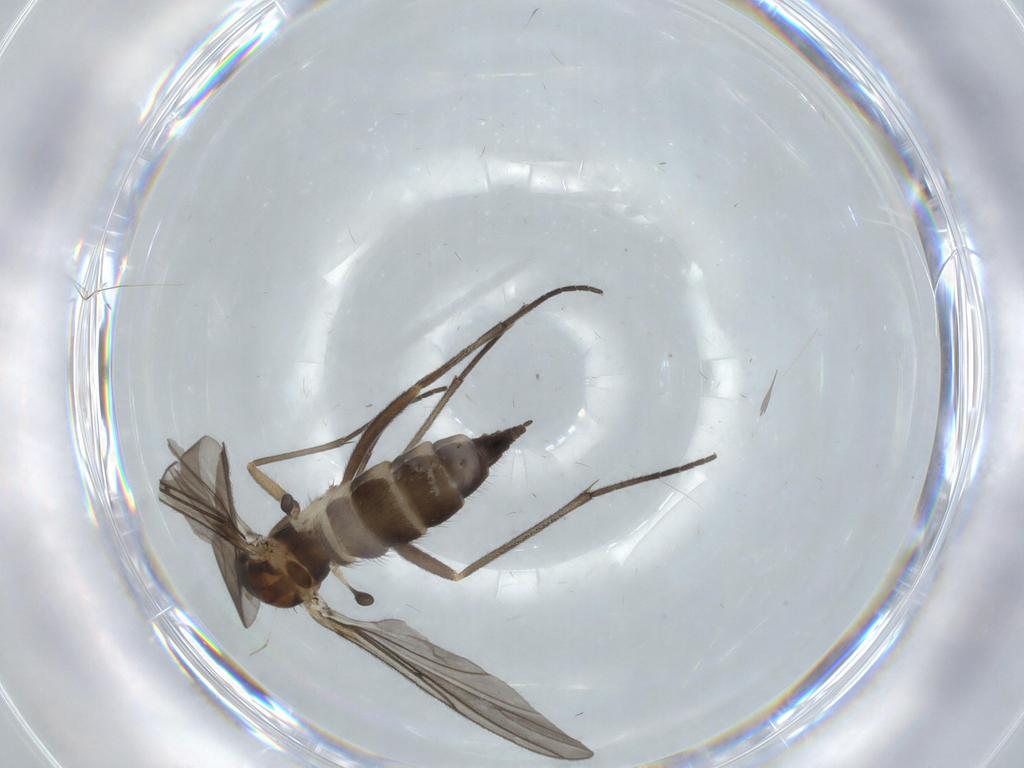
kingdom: Animalia
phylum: Arthropoda
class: Insecta
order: Diptera
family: Sciaridae
